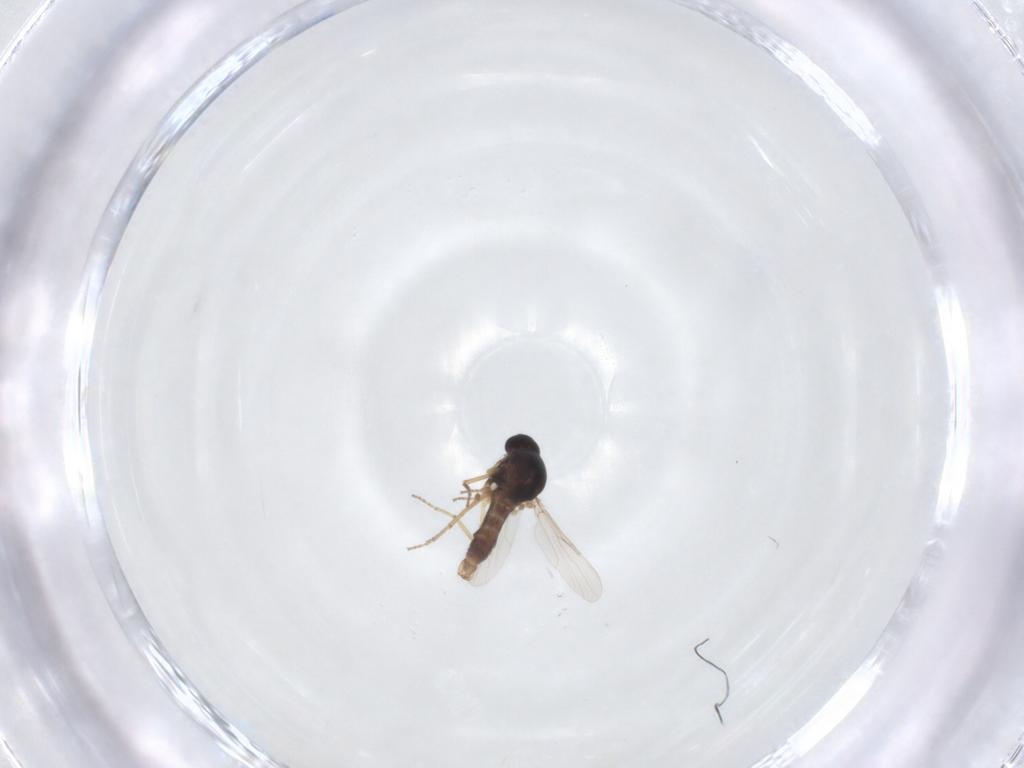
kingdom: Animalia
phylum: Arthropoda
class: Insecta
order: Diptera
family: Ceratopogonidae
